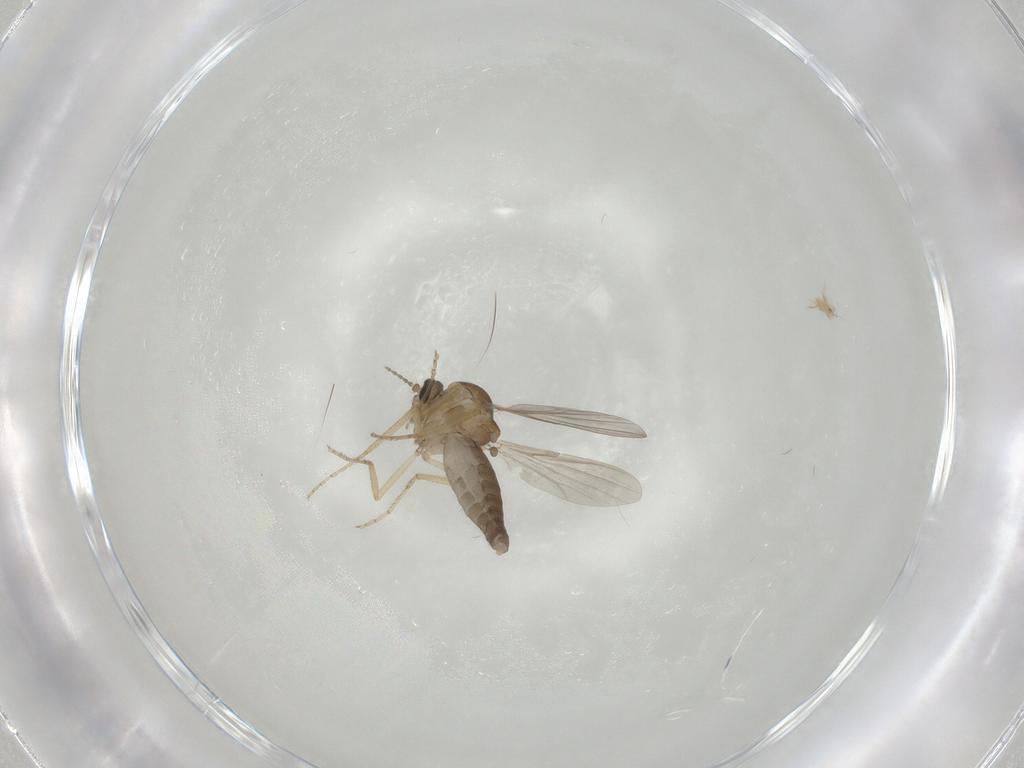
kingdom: Animalia
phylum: Arthropoda
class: Insecta
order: Diptera
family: Ceratopogonidae
